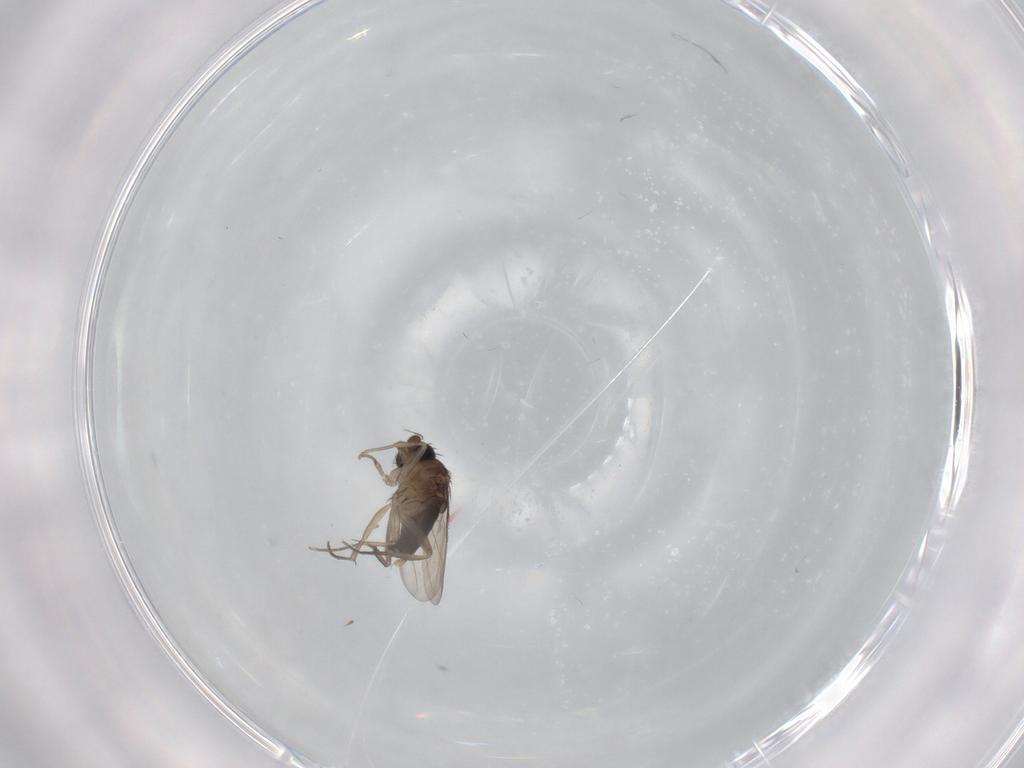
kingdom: Animalia
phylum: Arthropoda
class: Insecta
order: Diptera
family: Phoridae
